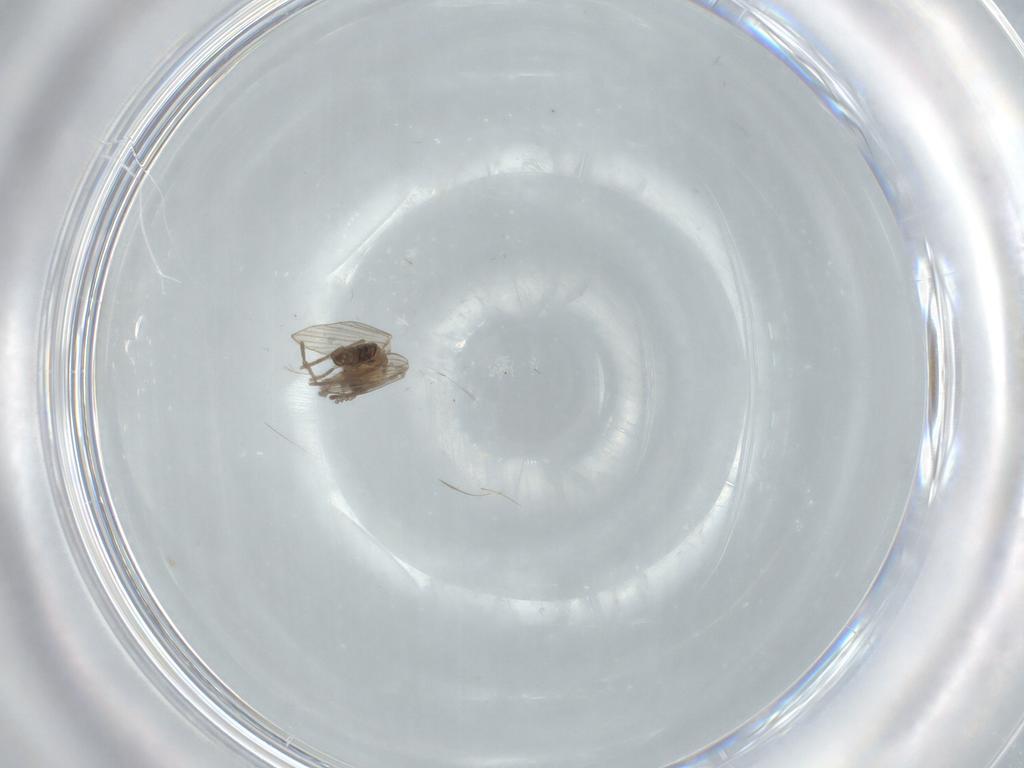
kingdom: Animalia
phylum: Arthropoda
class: Insecta
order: Diptera
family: Psychodidae
